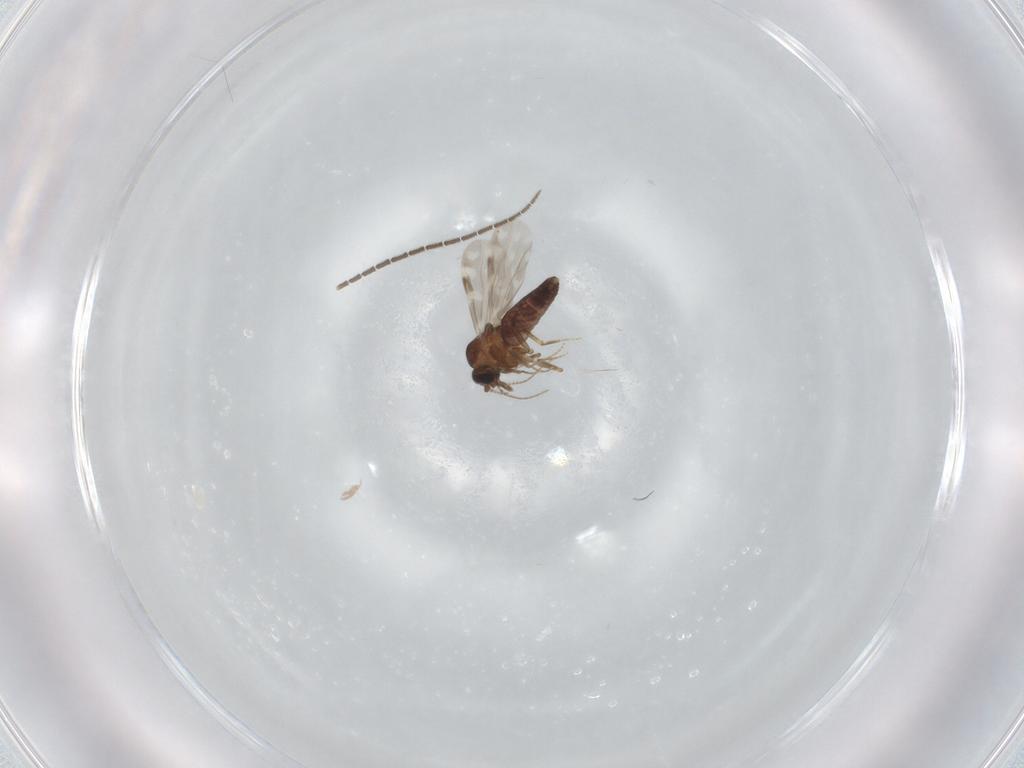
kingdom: Animalia
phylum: Arthropoda
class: Insecta
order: Diptera
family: Sciaridae
